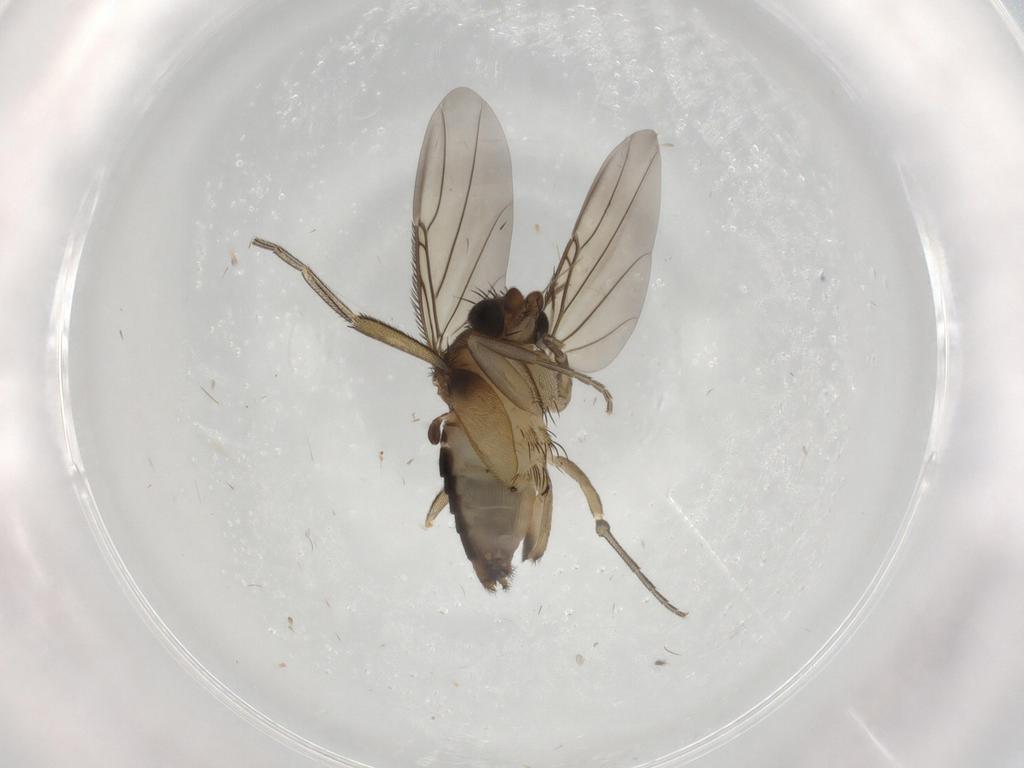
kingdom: Animalia
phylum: Arthropoda
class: Insecta
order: Diptera
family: Phoridae
